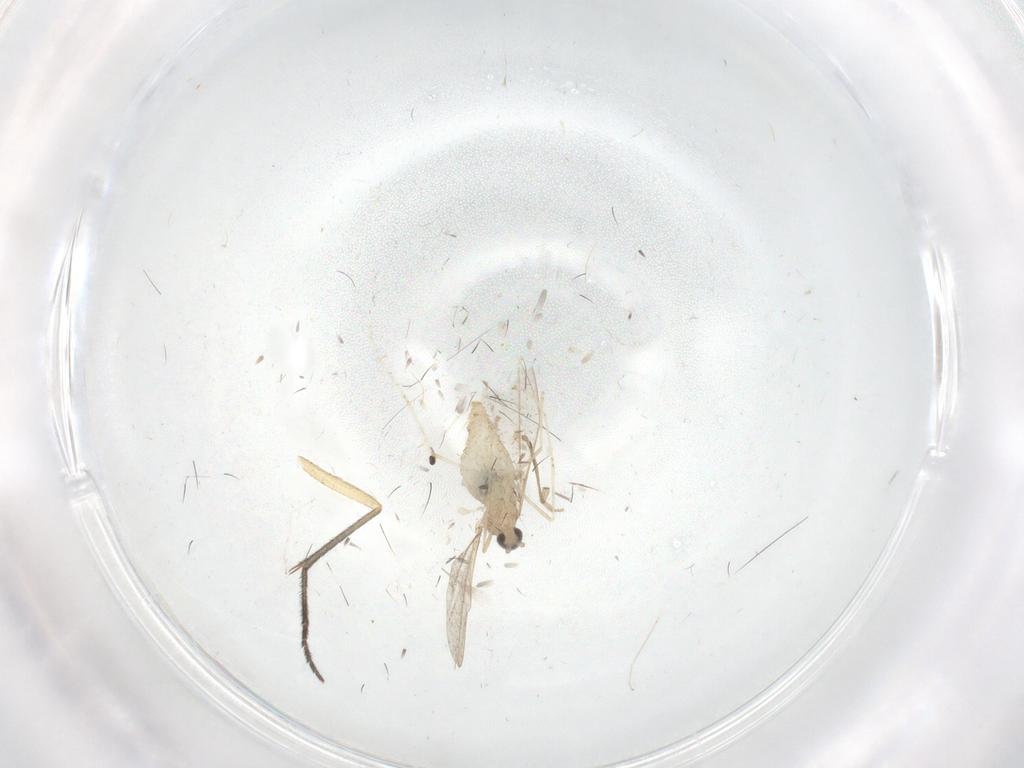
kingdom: Animalia
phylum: Arthropoda
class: Insecta
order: Diptera
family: Cecidomyiidae
